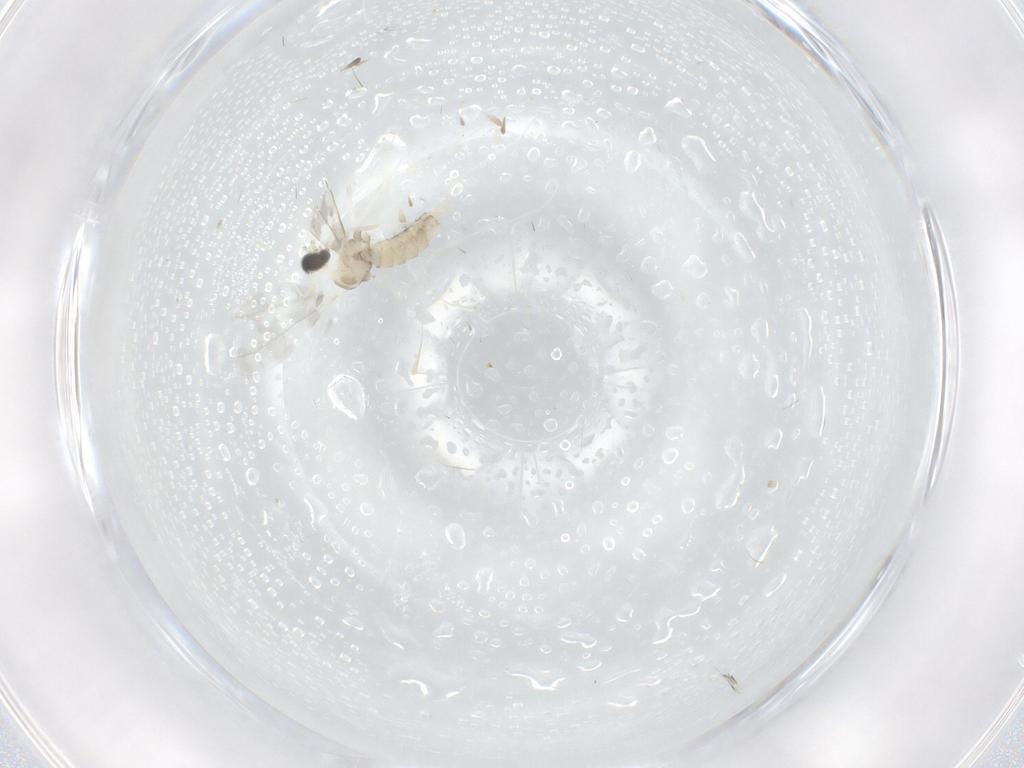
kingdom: Animalia
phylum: Arthropoda
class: Insecta
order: Diptera
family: Cecidomyiidae
